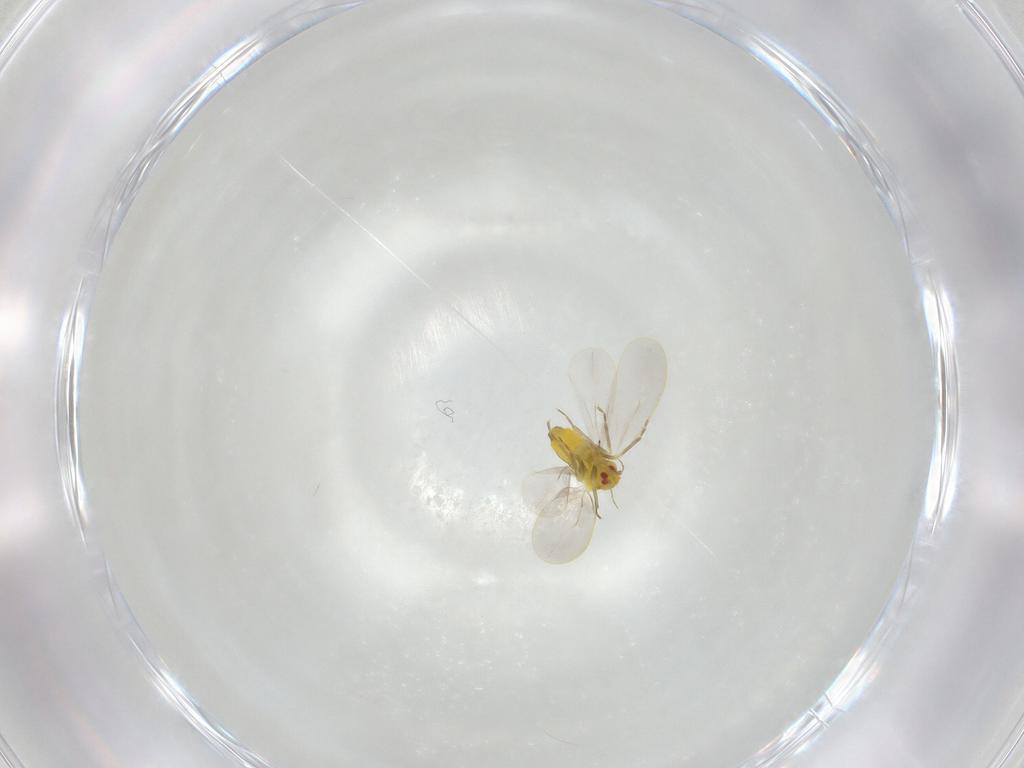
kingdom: Animalia
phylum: Arthropoda
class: Insecta
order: Hemiptera
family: Aleyrodidae
